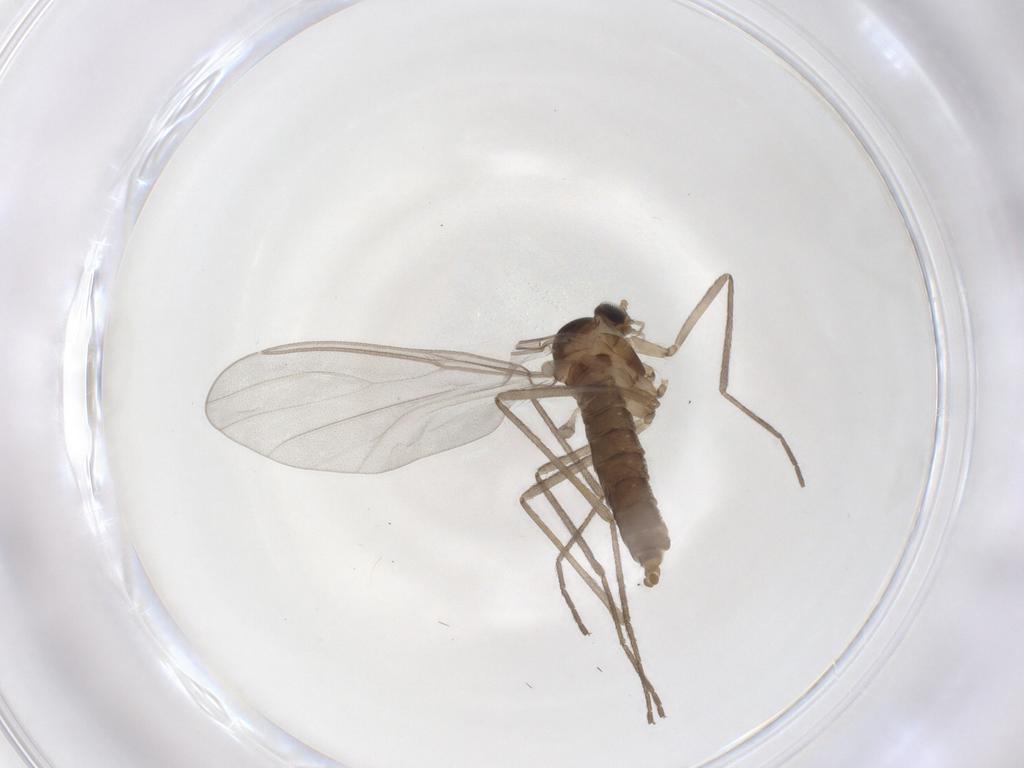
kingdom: Animalia
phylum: Arthropoda
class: Insecta
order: Diptera
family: Cecidomyiidae
